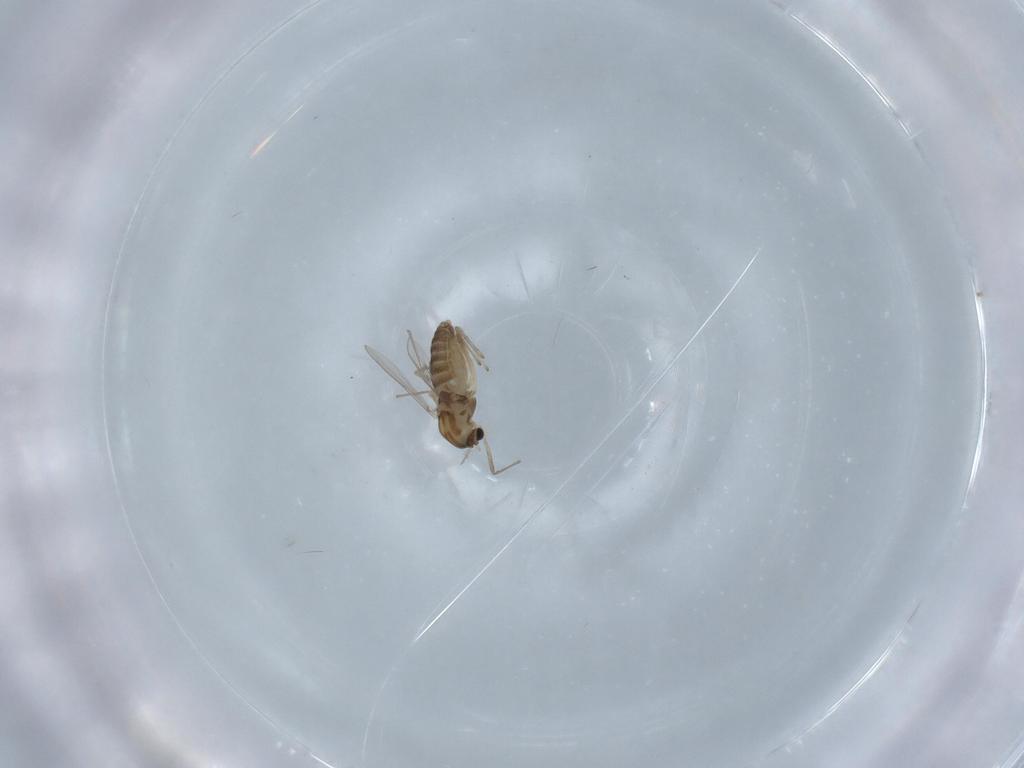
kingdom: Animalia
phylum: Arthropoda
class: Insecta
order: Diptera
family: Chironomidae
